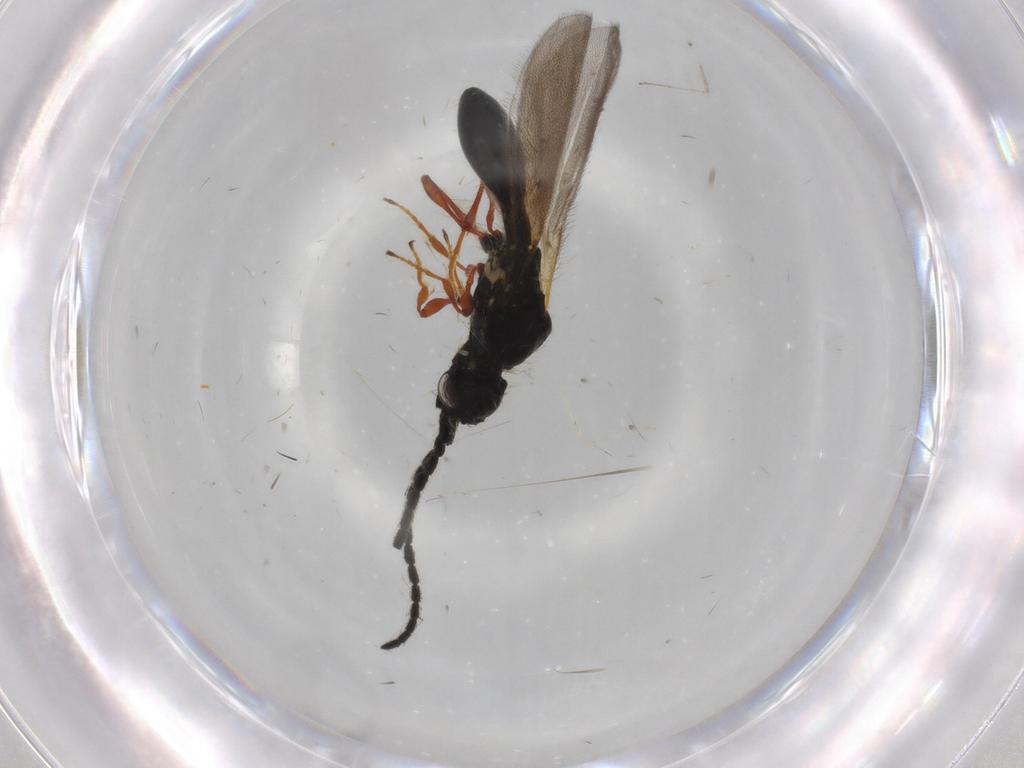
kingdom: Animalia
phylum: Arthropoda
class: Insecta
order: Hymenoptera
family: Diapriidae
